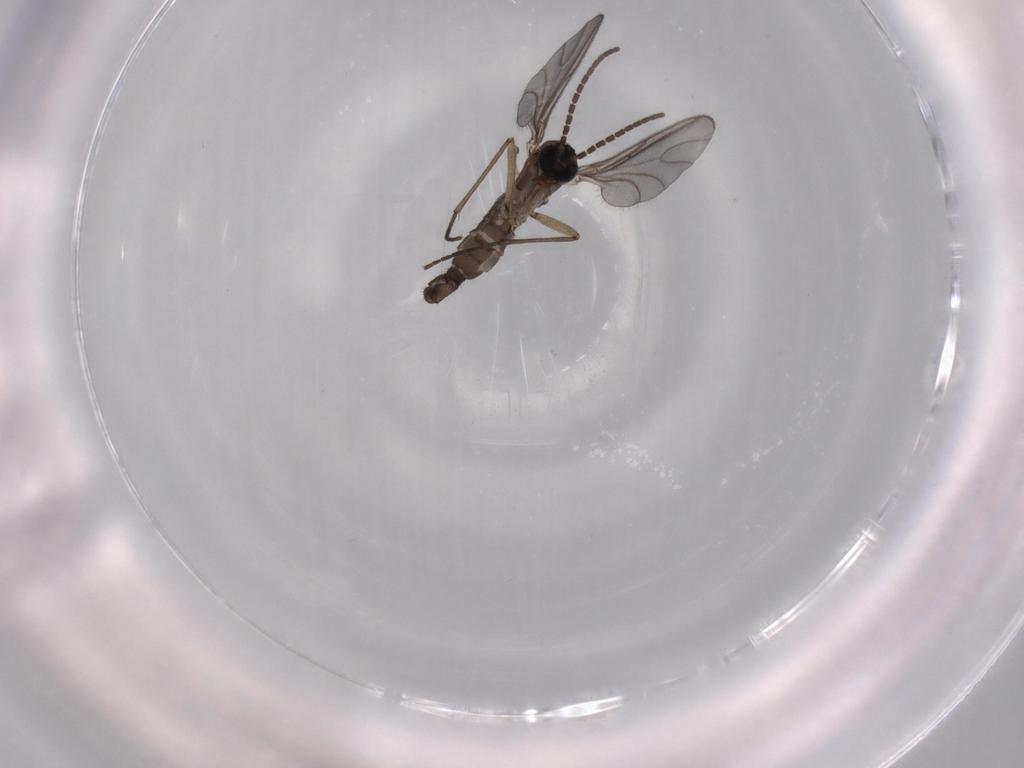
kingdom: Animalia
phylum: Arthropoda
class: Insecta
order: Diptera
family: Sciaridae
